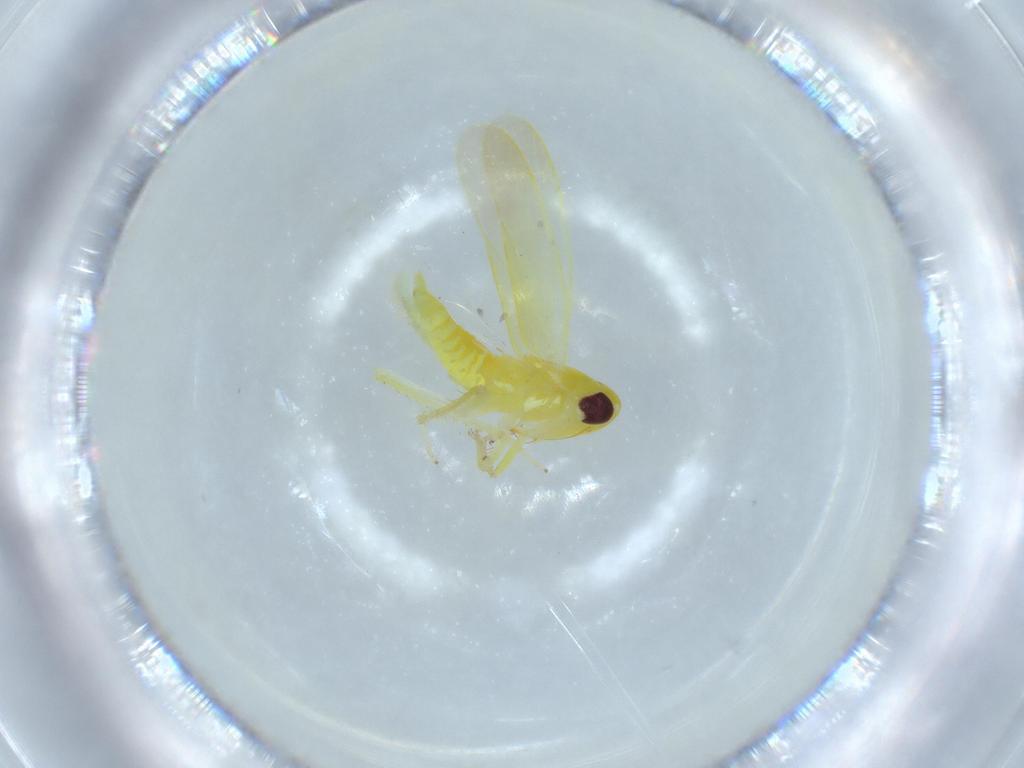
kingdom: Animalia
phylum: Arthropoda
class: Insecta
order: Hemiptera
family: Cicadellidae
